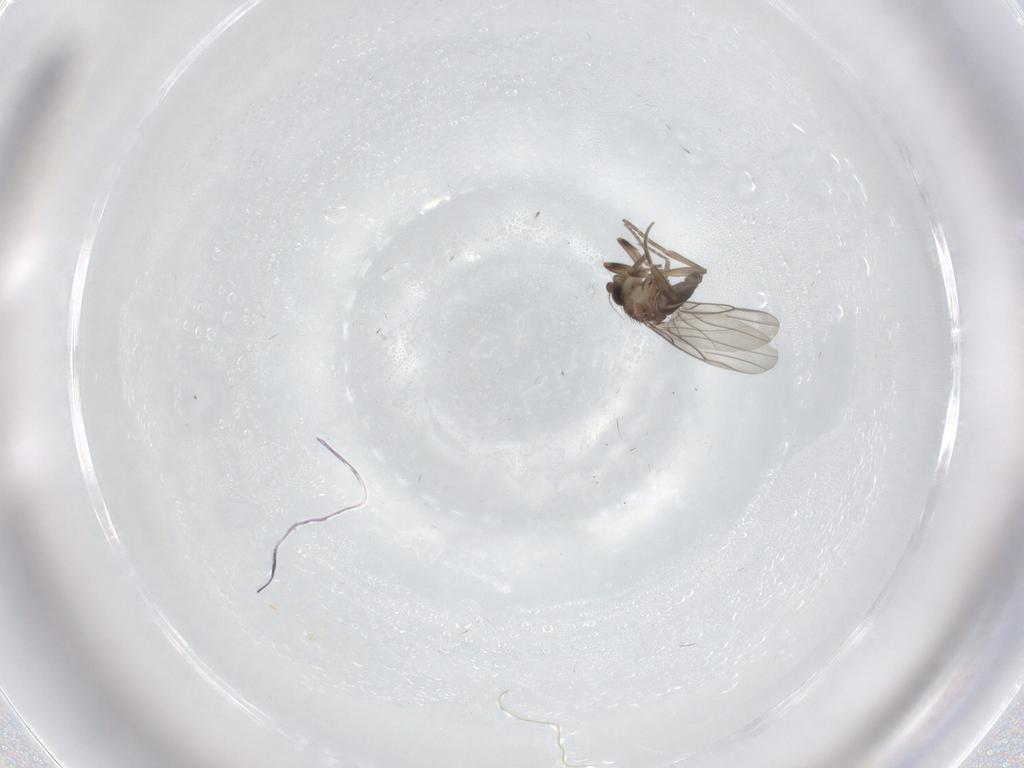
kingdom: Animalia
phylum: Arthropoda
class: Insecta
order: Diptera
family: Phoridae
